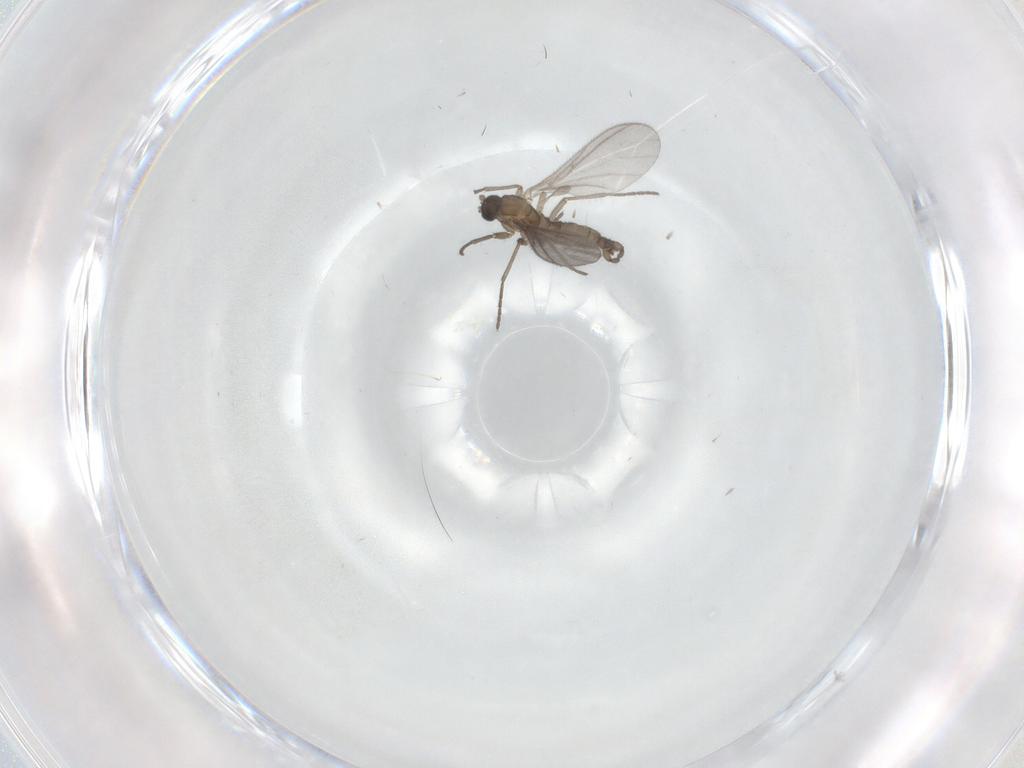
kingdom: Animalia
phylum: Arthropoda
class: Insecta
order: Diptera
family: Sciaridae
